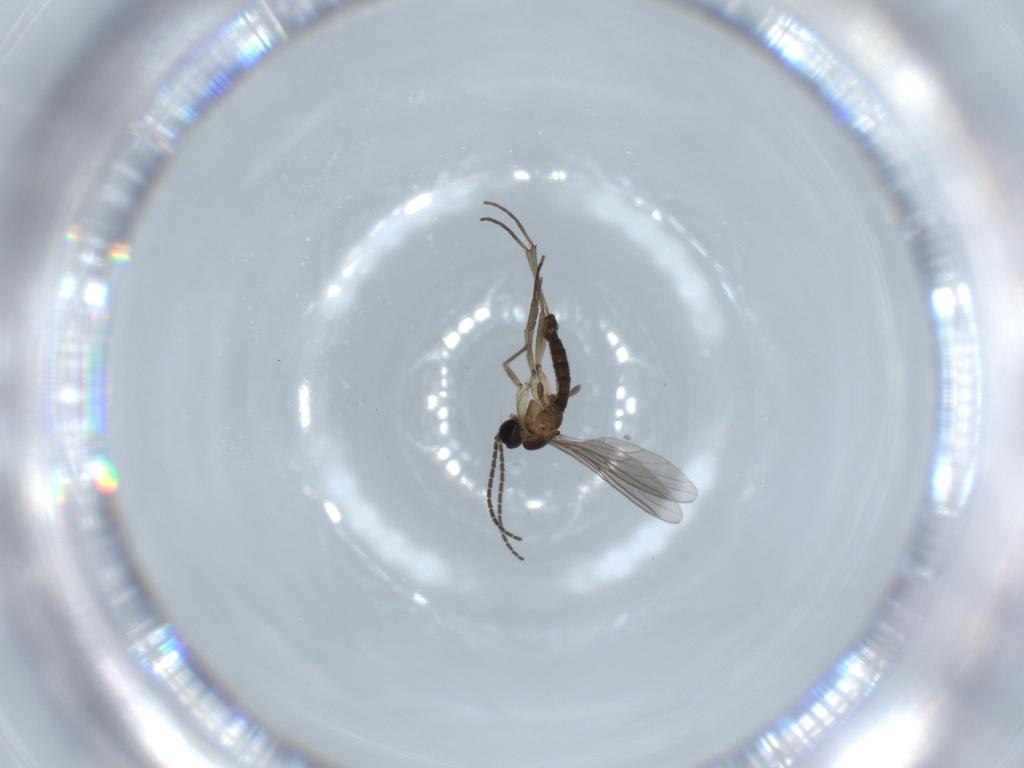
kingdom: Animalia
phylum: Arthropoda
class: Insecta
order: Diptera
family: Sciaridae
